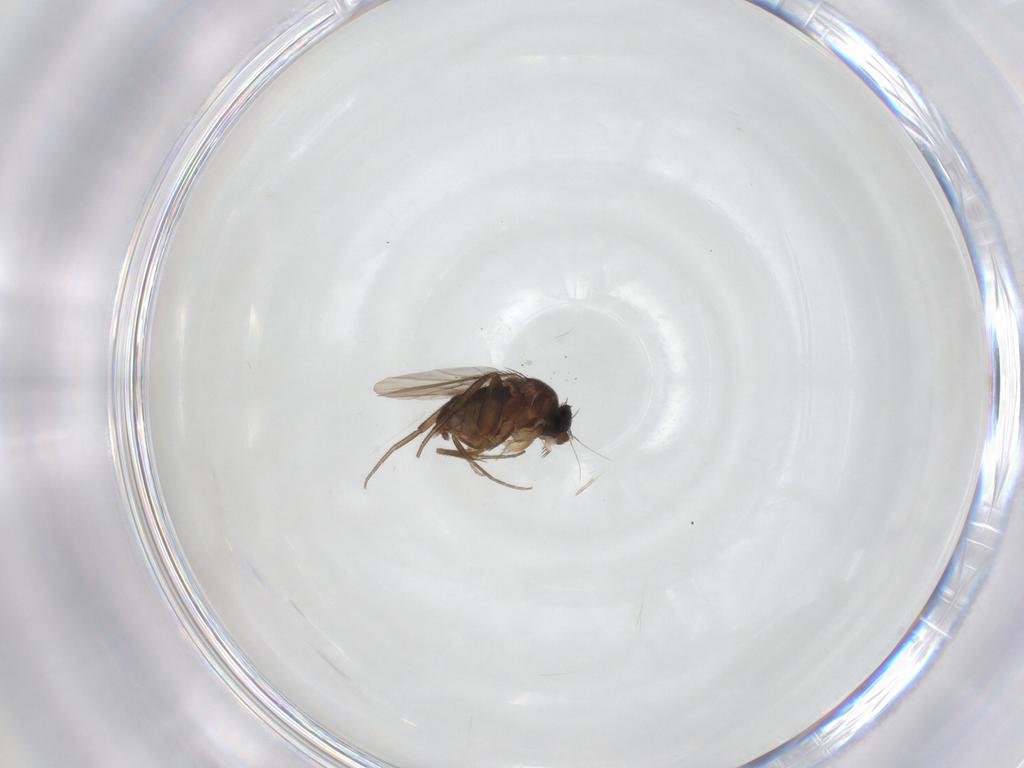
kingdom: Animalia
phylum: Arthropoda
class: Insecta
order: Diptera
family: Phoridae
